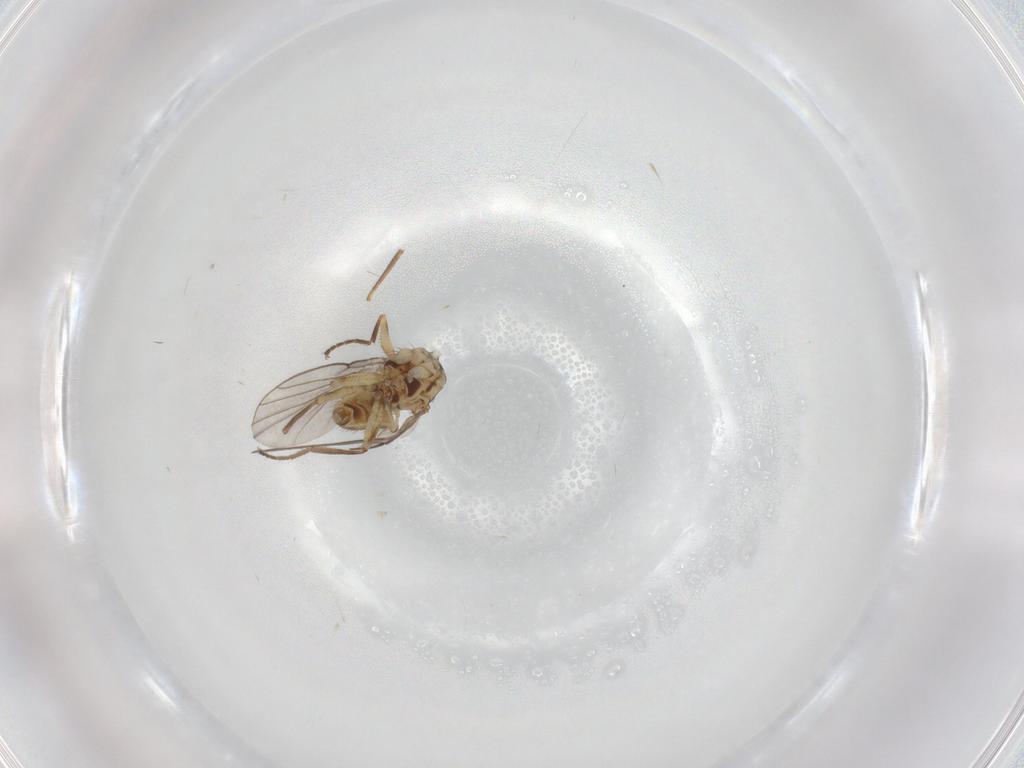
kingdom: Animalia
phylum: Arthropoda
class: Insecta
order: Diptera
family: Agromyzidae
